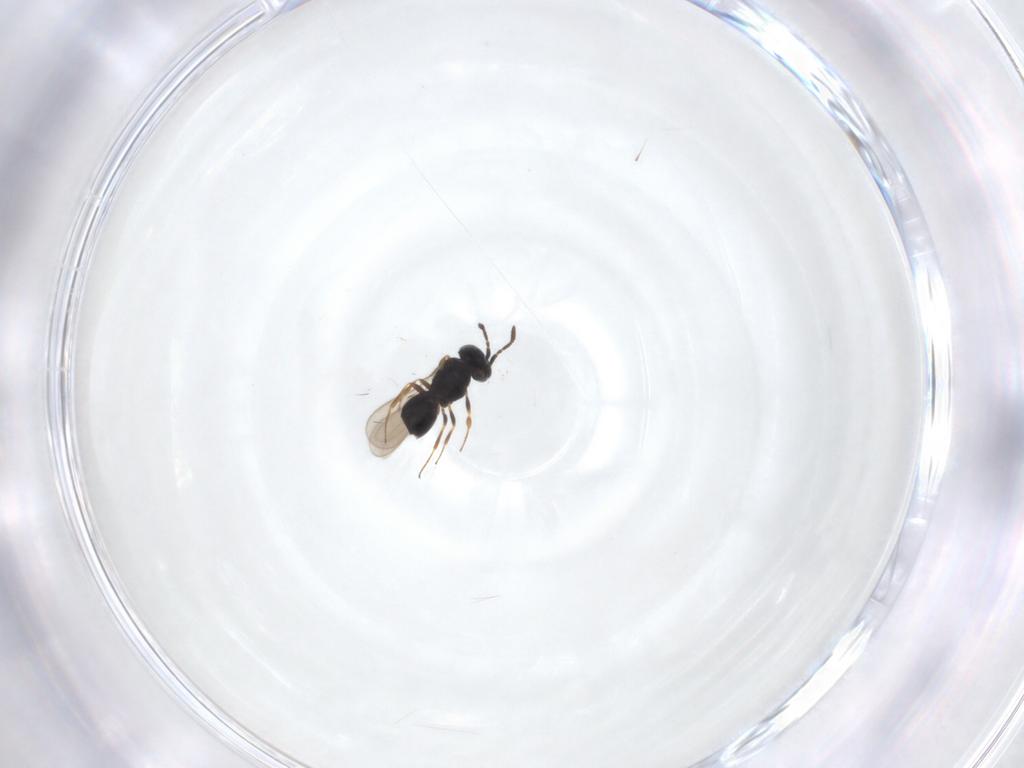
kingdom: Animalia
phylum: Arthropoda
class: Insecta
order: Hymenoptera
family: Scelionidae
